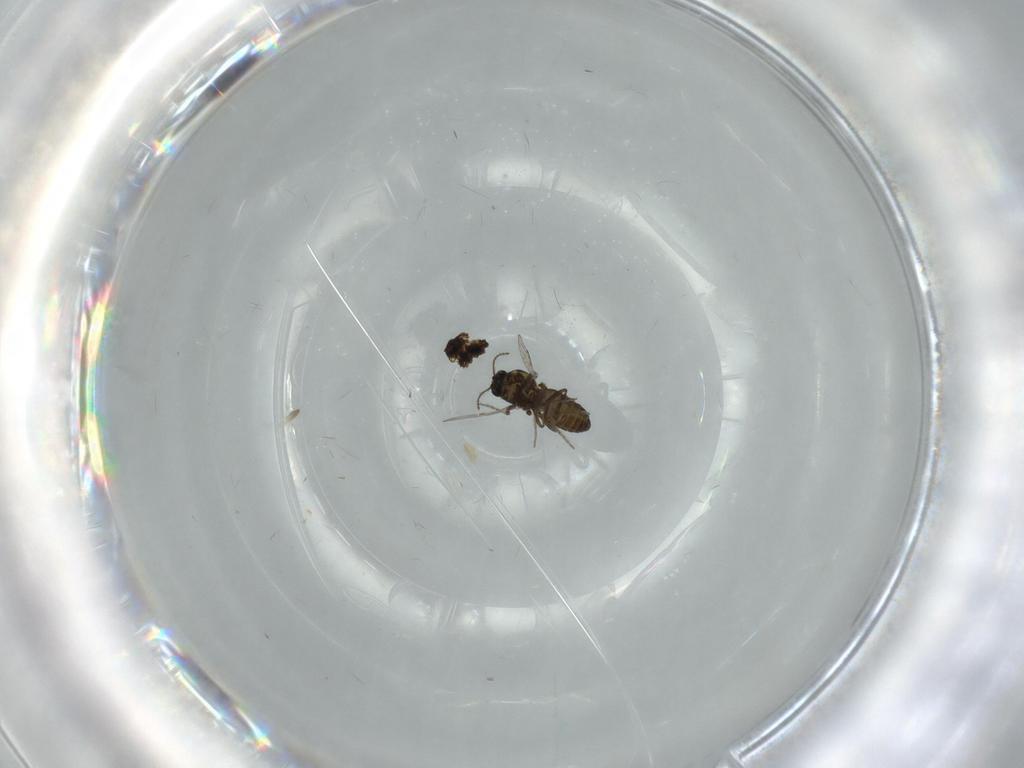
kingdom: Animalia
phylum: Arthropoda
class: Insecta
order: Diptera
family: Ceratopogonidae
